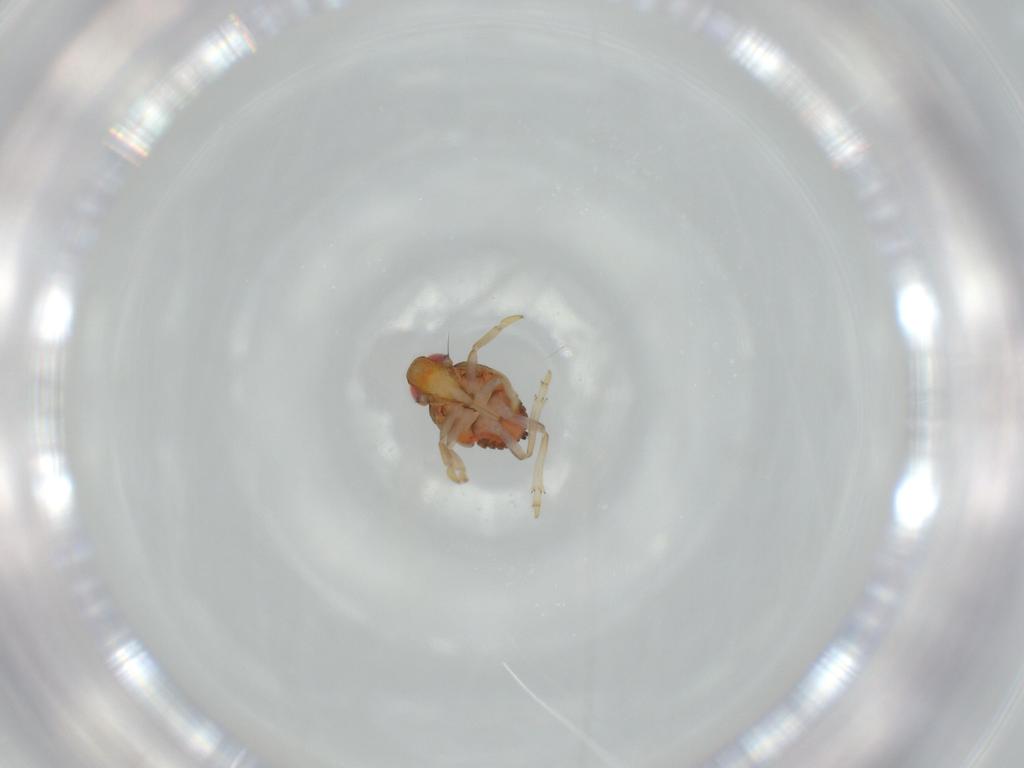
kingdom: Animalia
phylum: Arthropoda
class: Insecta
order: Hemiptera
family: Issidae
